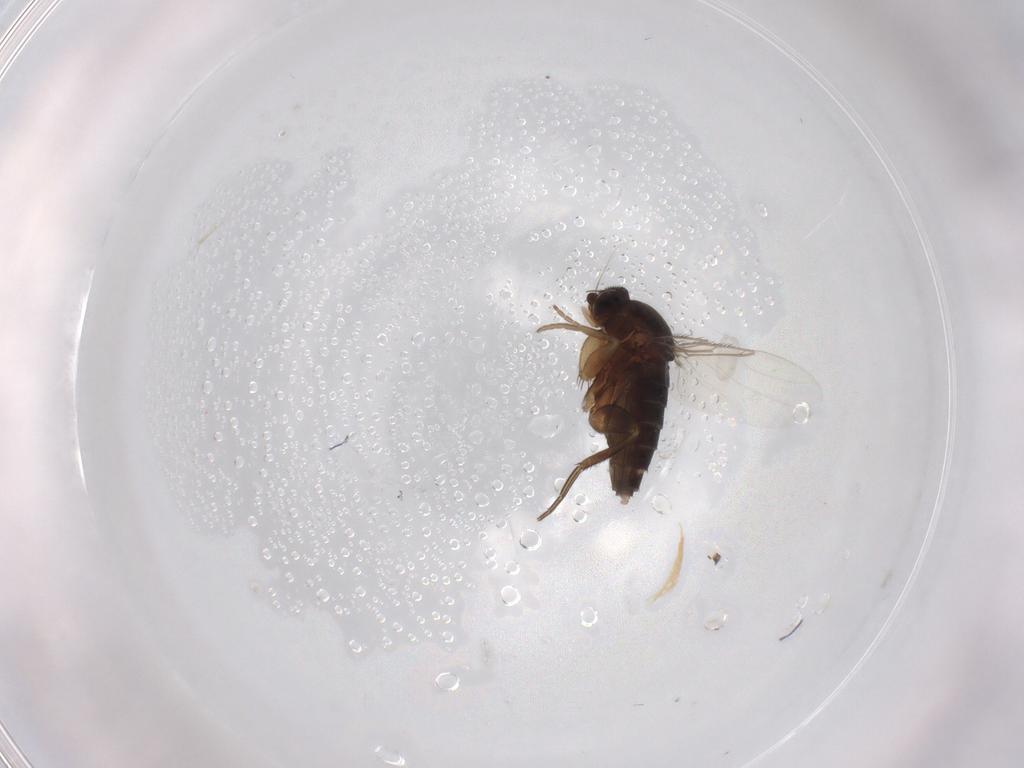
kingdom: Animalia
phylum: Arthropoda
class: Insecta
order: Diptera
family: Phoridae
